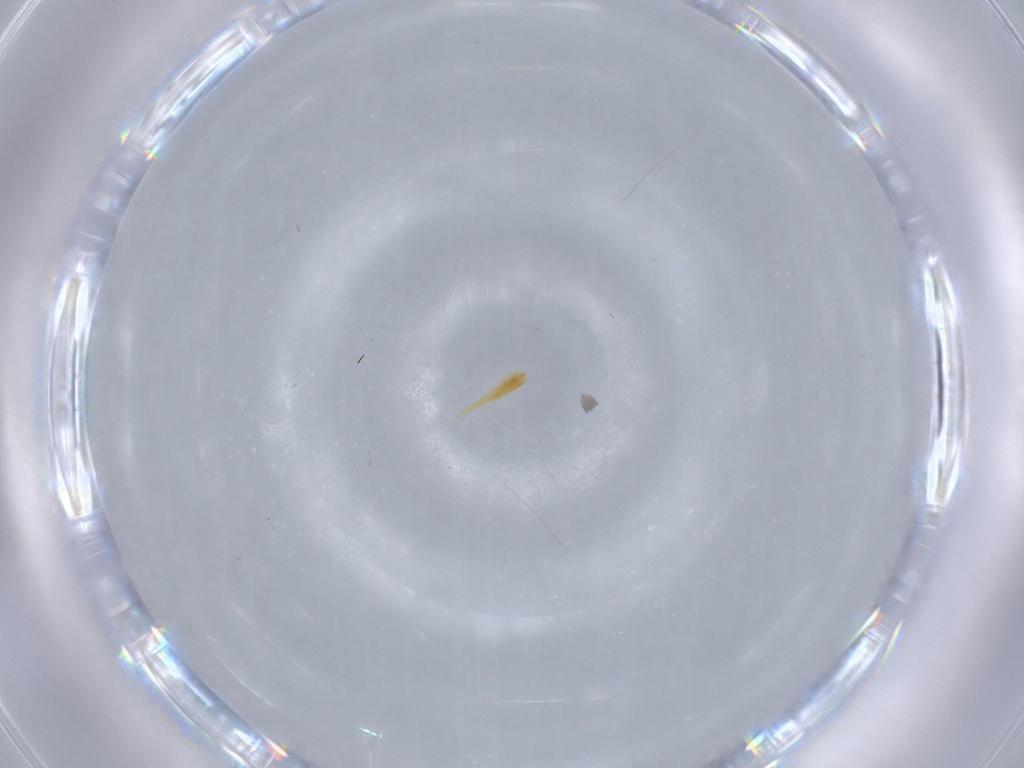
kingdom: Animalia
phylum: Arthropoda
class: Insecta
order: Diptera
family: Cecidomyiidae
